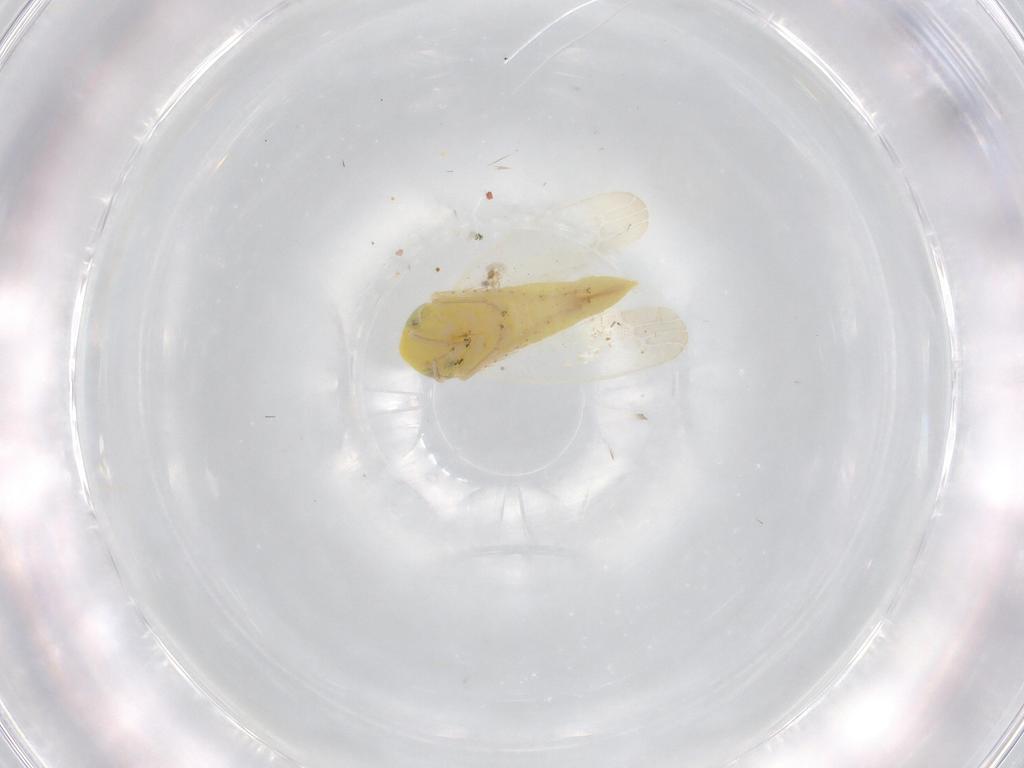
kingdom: Animalia
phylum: Arthropoda
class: Insecta
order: Hemiptera
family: Cicadellidae
